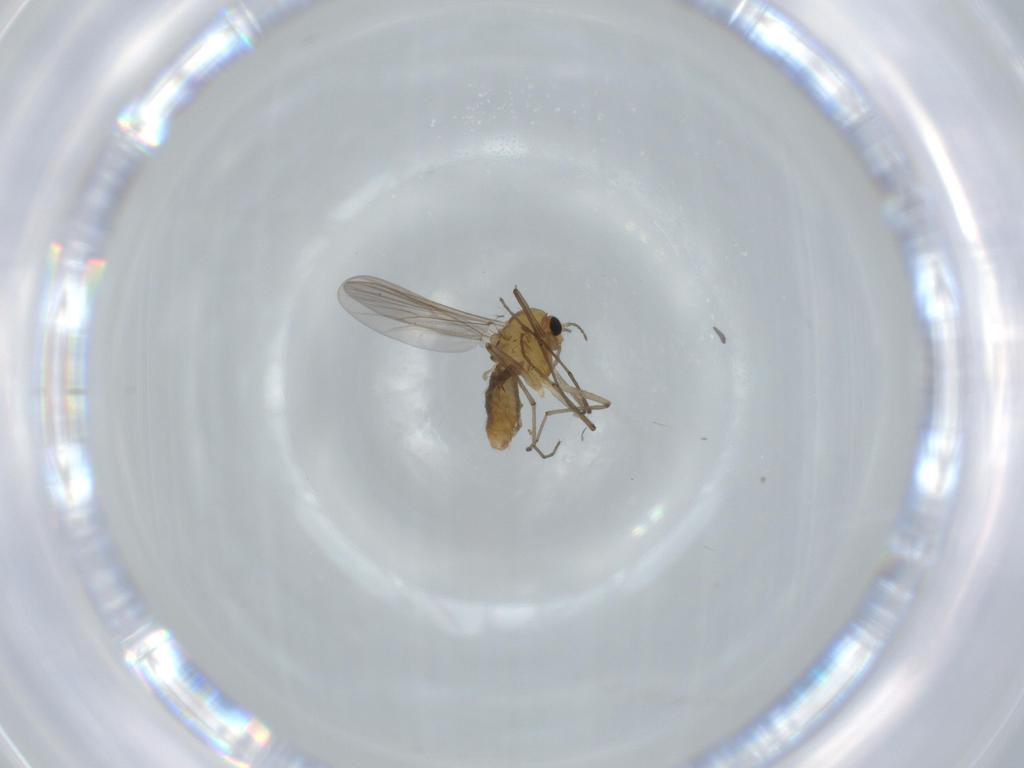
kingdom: Animalia
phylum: Arthropoda
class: Insecta
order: Diptera
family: Chironomidae
